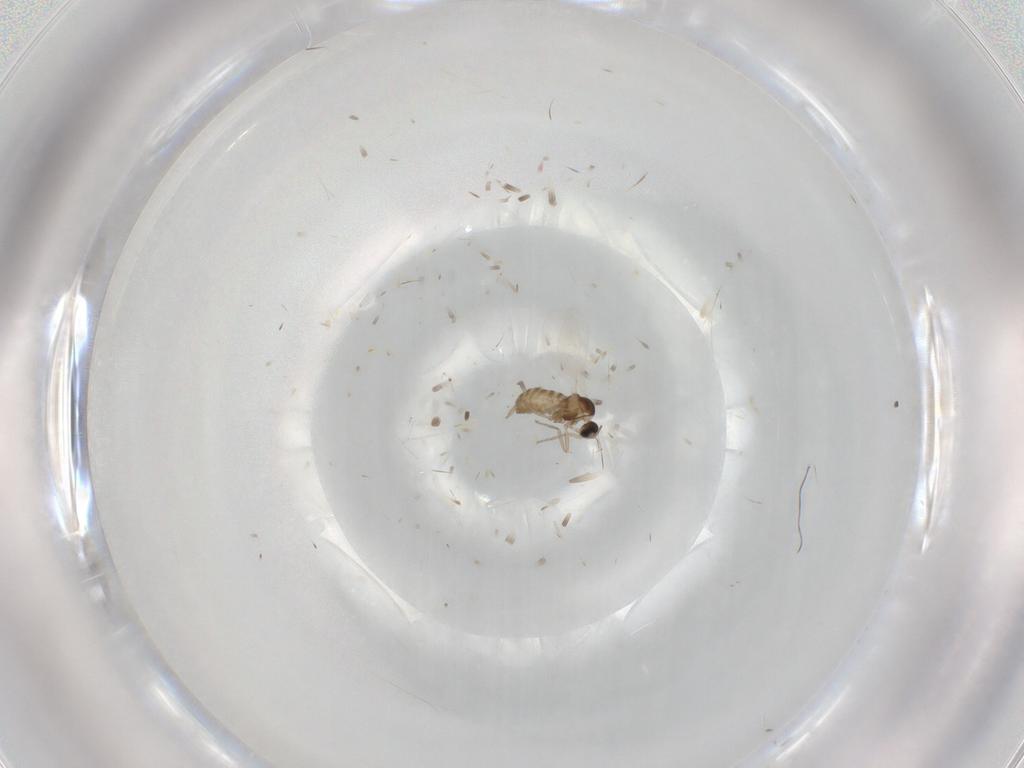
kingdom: Animalia
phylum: Arthropoda
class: Insecta
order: Diptera
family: Cecidomyiidae
